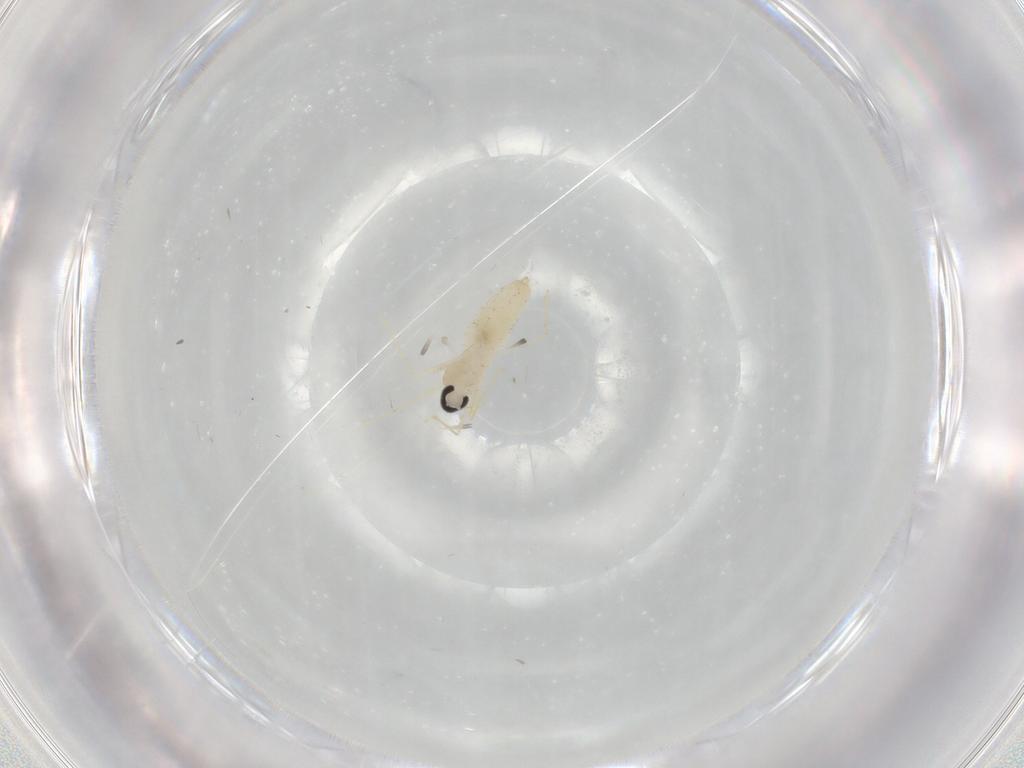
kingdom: Animalia
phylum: Arthropoda
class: Insecta
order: Diptera
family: Cecidomyiidae
